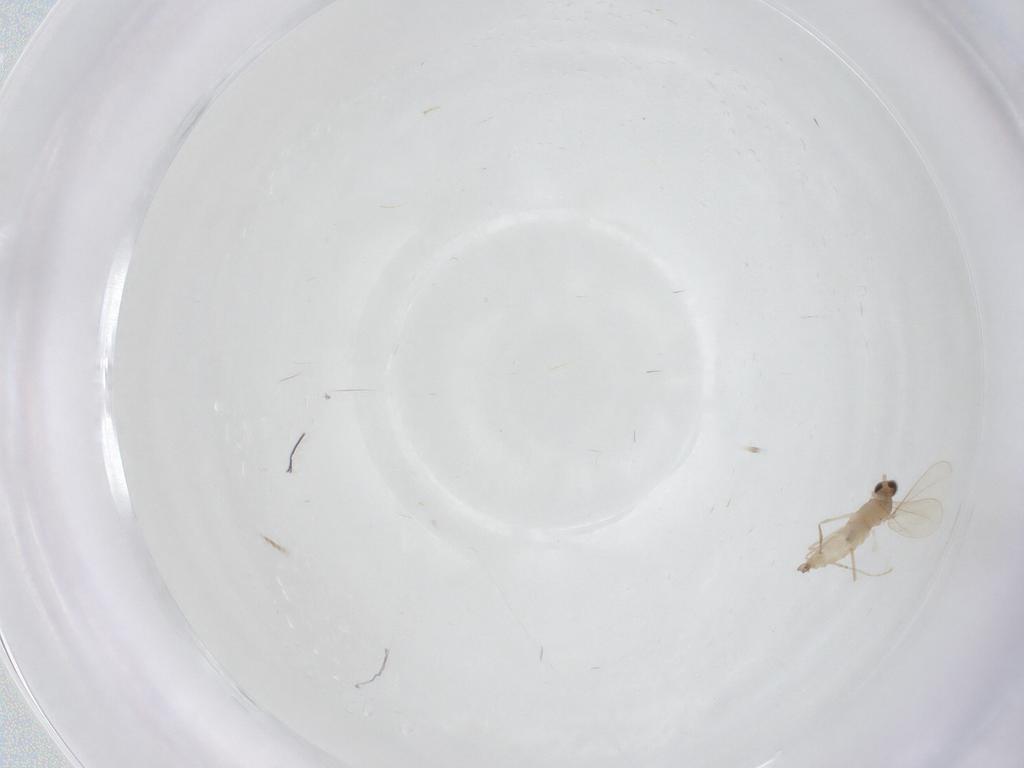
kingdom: Animalia
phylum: Arthropoda
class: Insecta
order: Diptera
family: Cecidomyiidae
